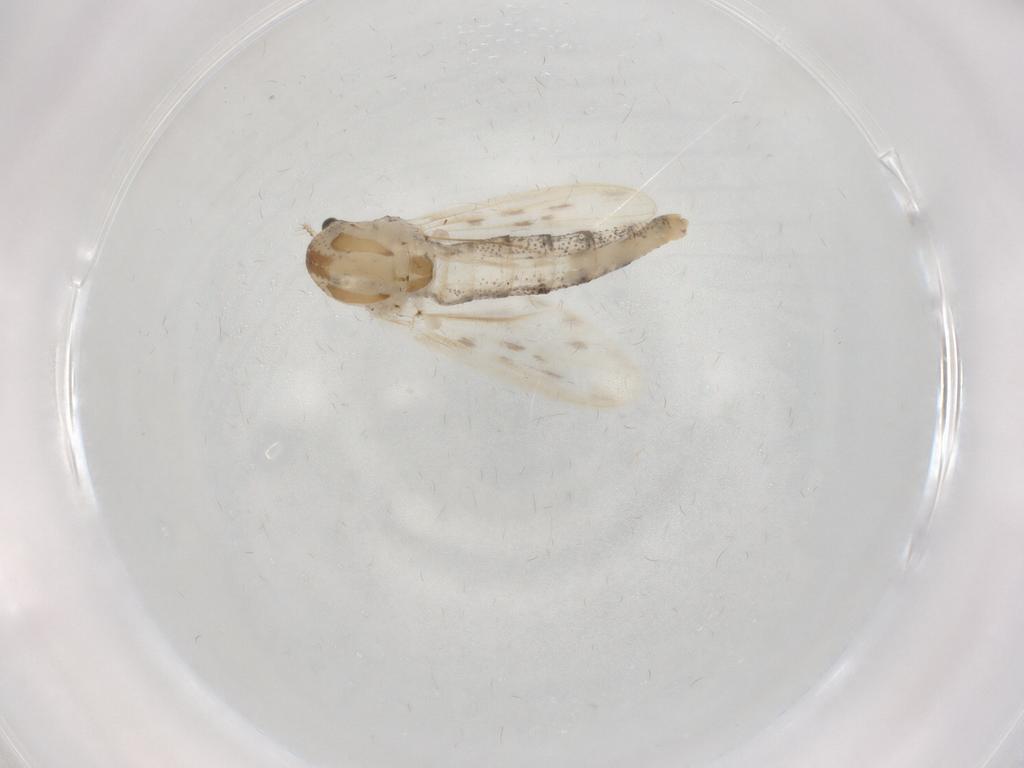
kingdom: Animalia
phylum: Arthropoda
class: Insecta
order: Diptera
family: Chaoboridae
